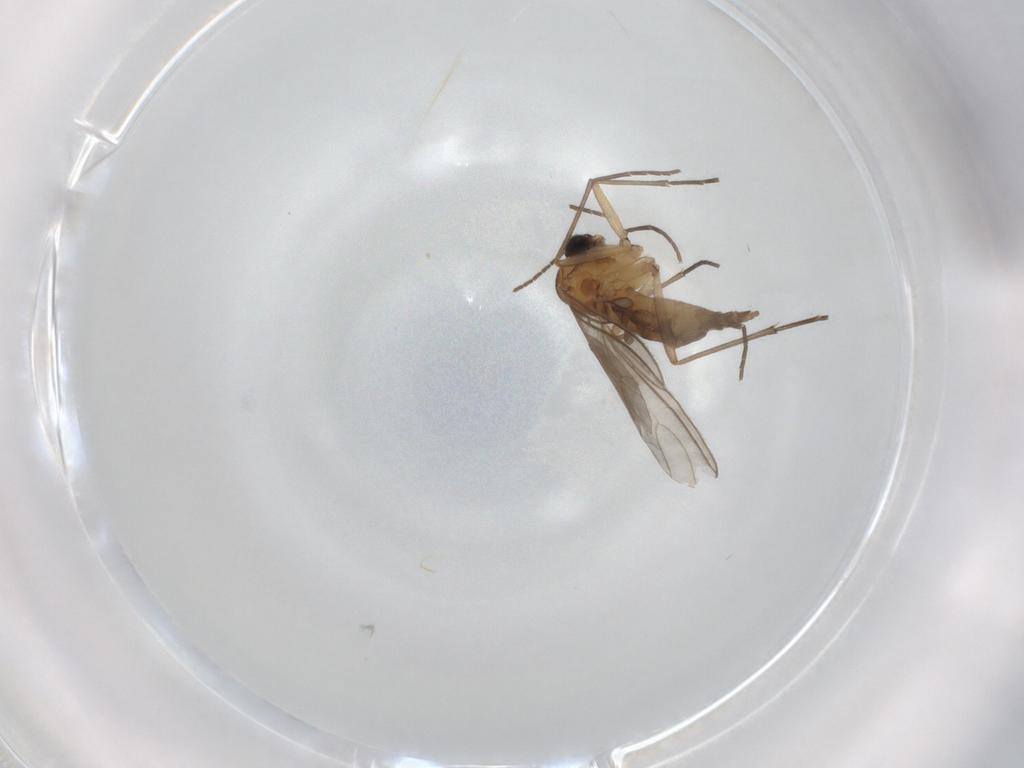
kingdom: Animalia
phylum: Arthropoda
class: Insecta
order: Diptera
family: Sciaridae
